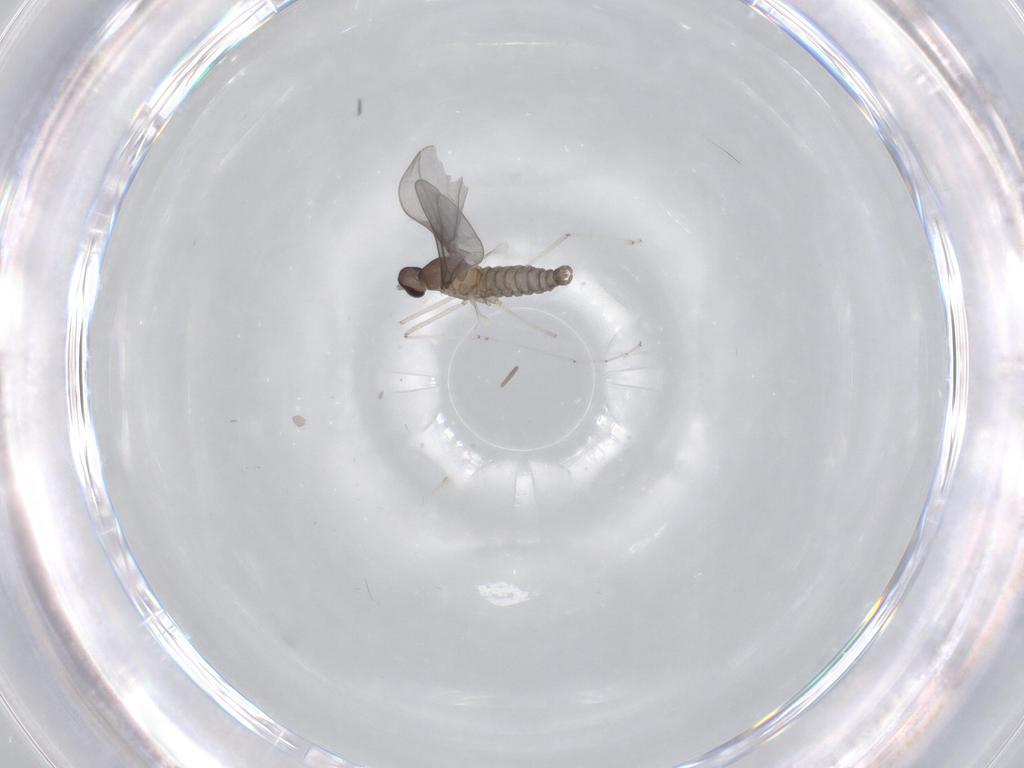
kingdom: Animalia
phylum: Arthropoda
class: Insecta
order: Diptera
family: Cecidomyiidae
